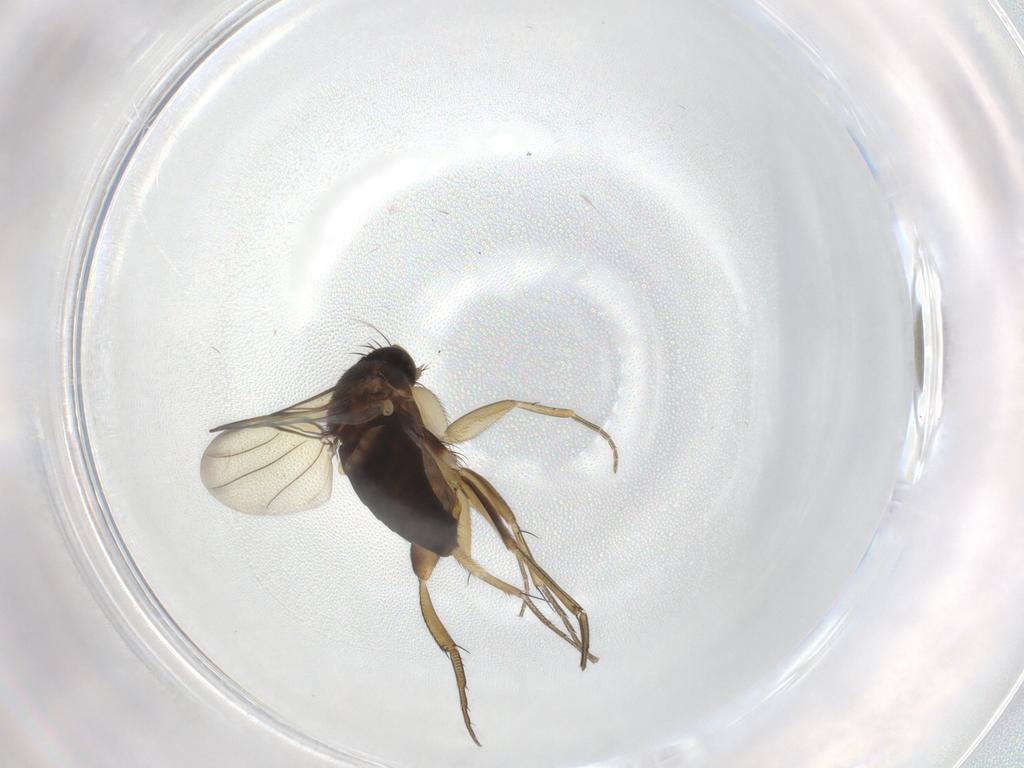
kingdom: Animalia
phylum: Arthropoda
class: Insecta
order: Diptera
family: Phoridae
